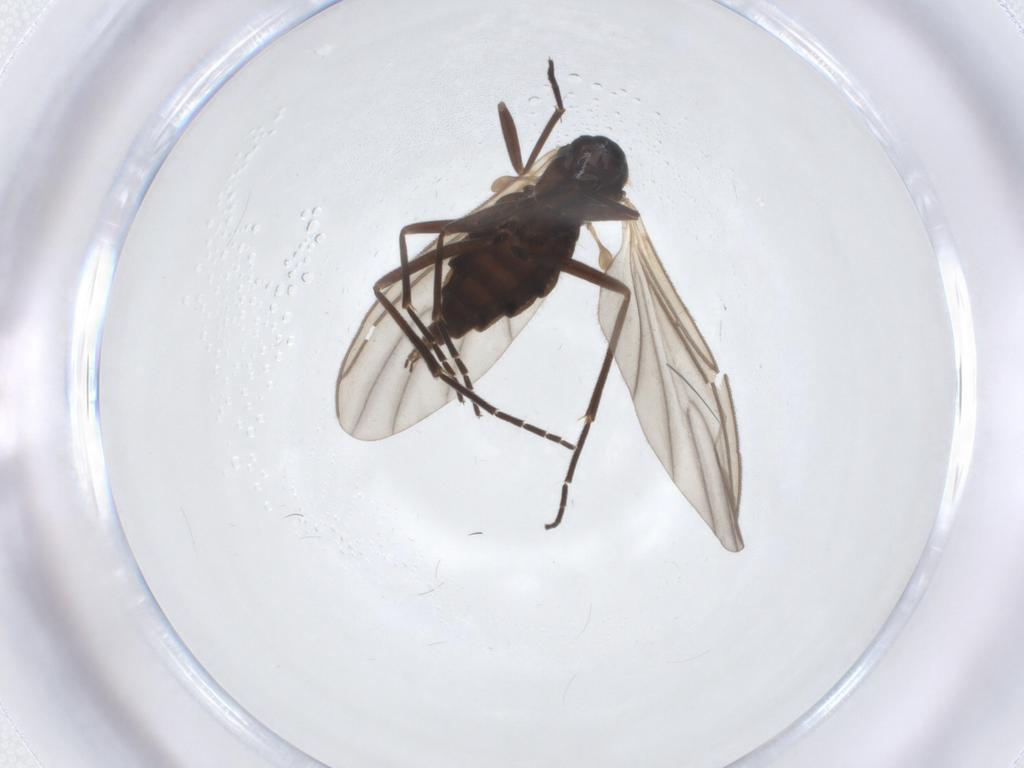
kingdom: Animalia
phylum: Arthropoda
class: Insecta
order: Diptera
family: Sciaridae
